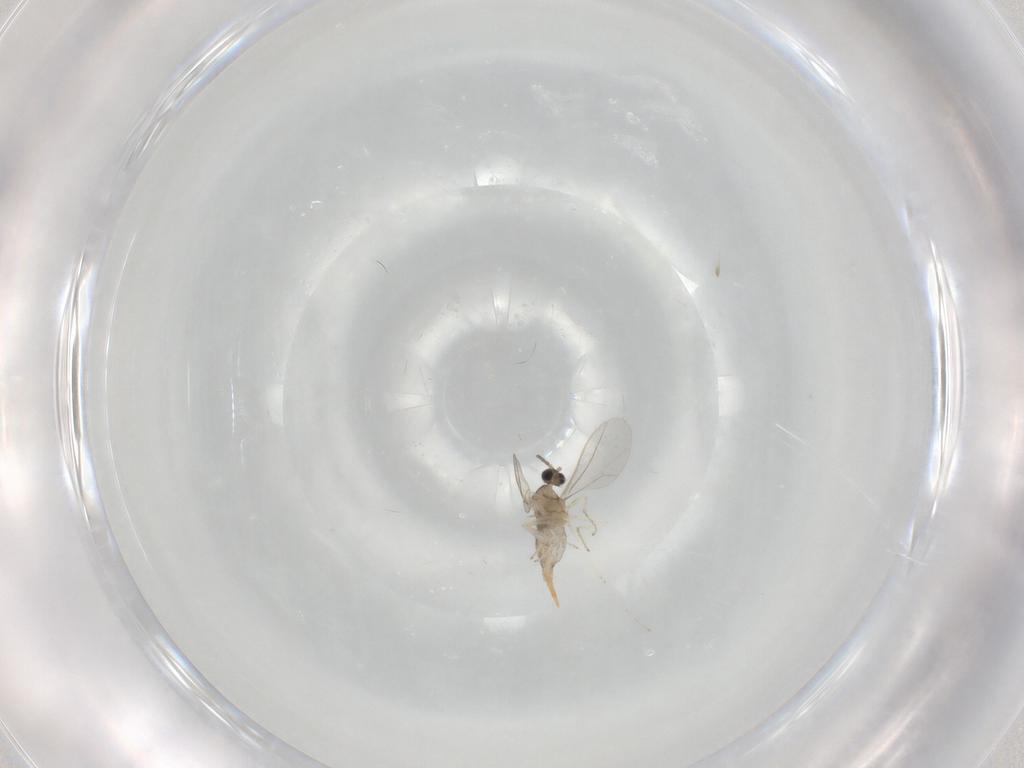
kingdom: Animalia
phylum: Arthropoda
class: Insecta
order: Diptera
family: Cecidomyiidae
